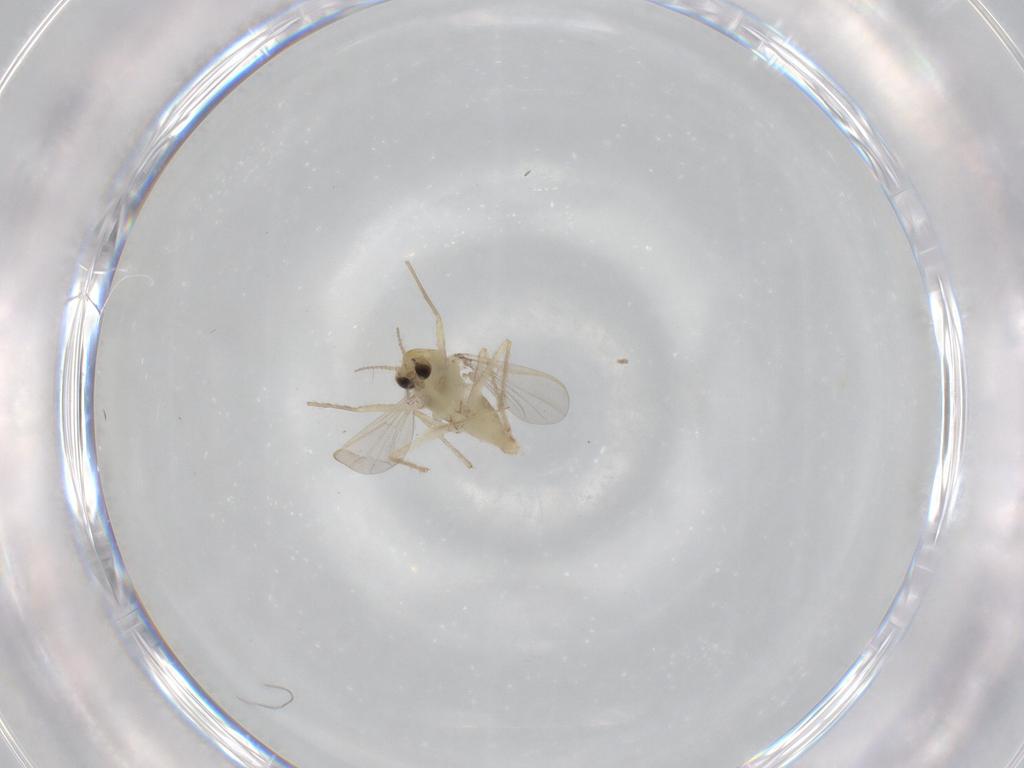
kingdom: Animalia
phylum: Arthropoda
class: Insecta
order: Diptera
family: Chironomidae
